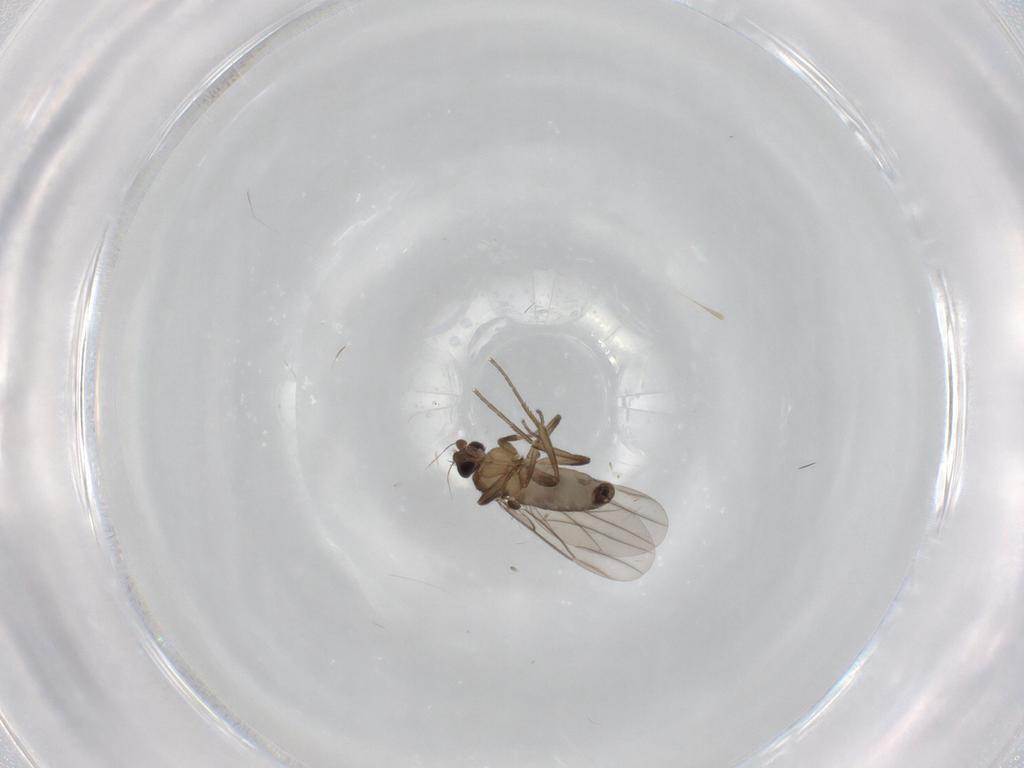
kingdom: Animalia
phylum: Arthropoda
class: Insecta
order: Diptera
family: Phoridae
